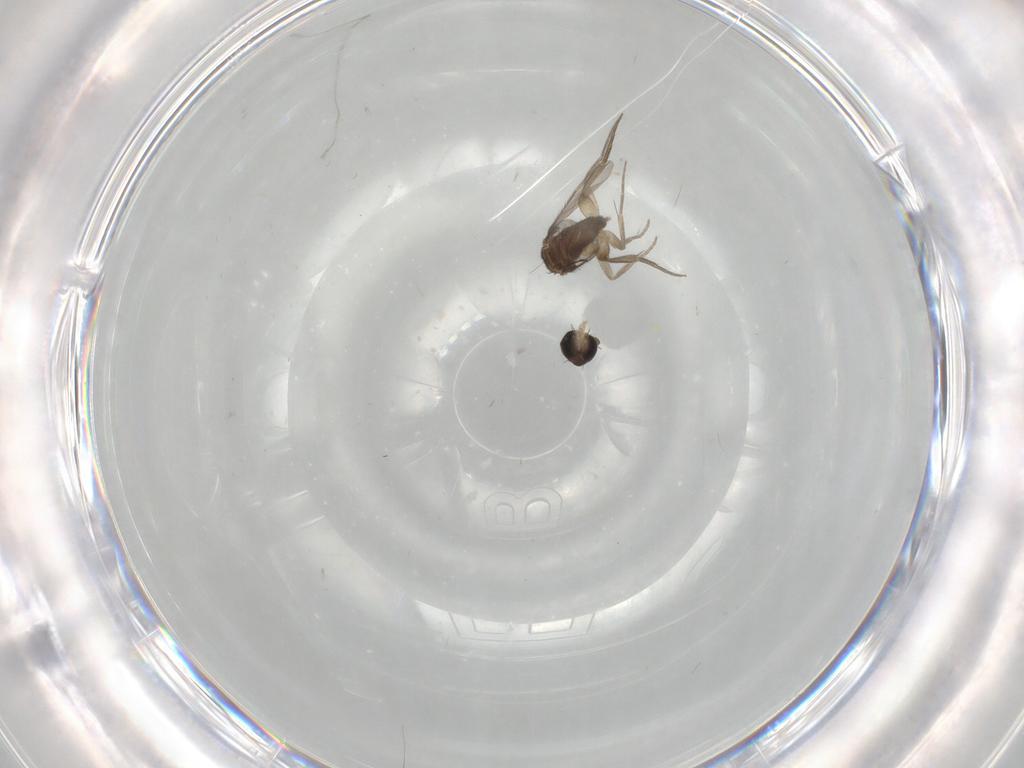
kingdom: Animalia
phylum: Arthropoda
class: Insecta
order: Diptera
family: Phoridae
